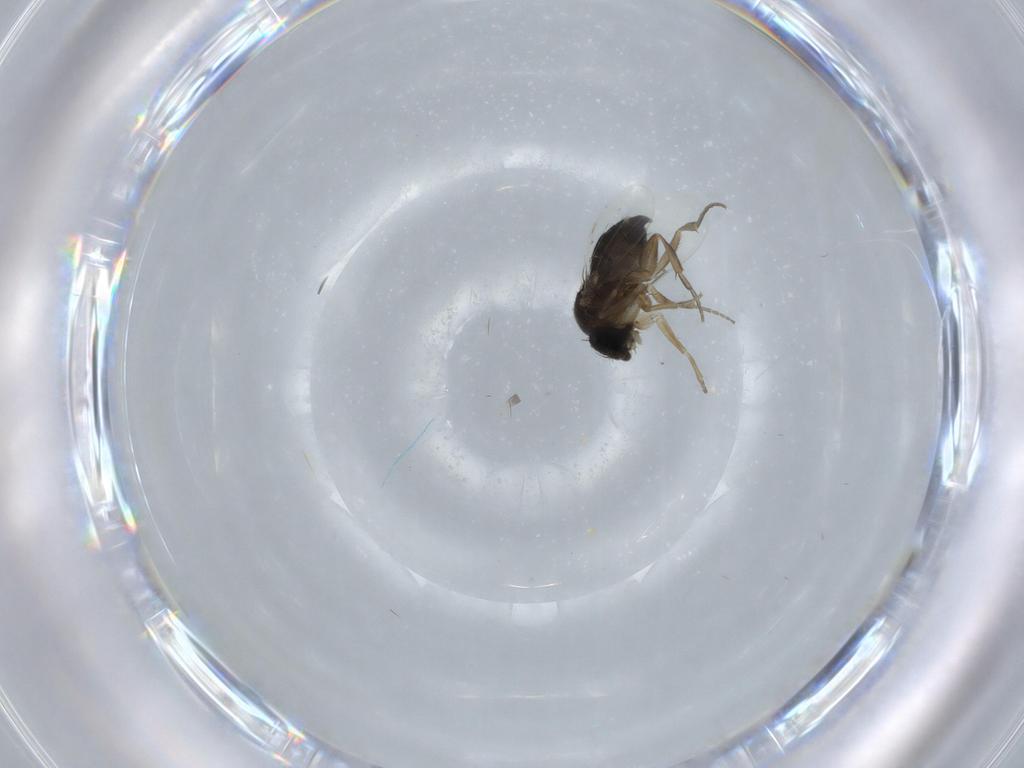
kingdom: Animalia
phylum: Arthropoda
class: Insecta
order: Diptera
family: Phoridae
